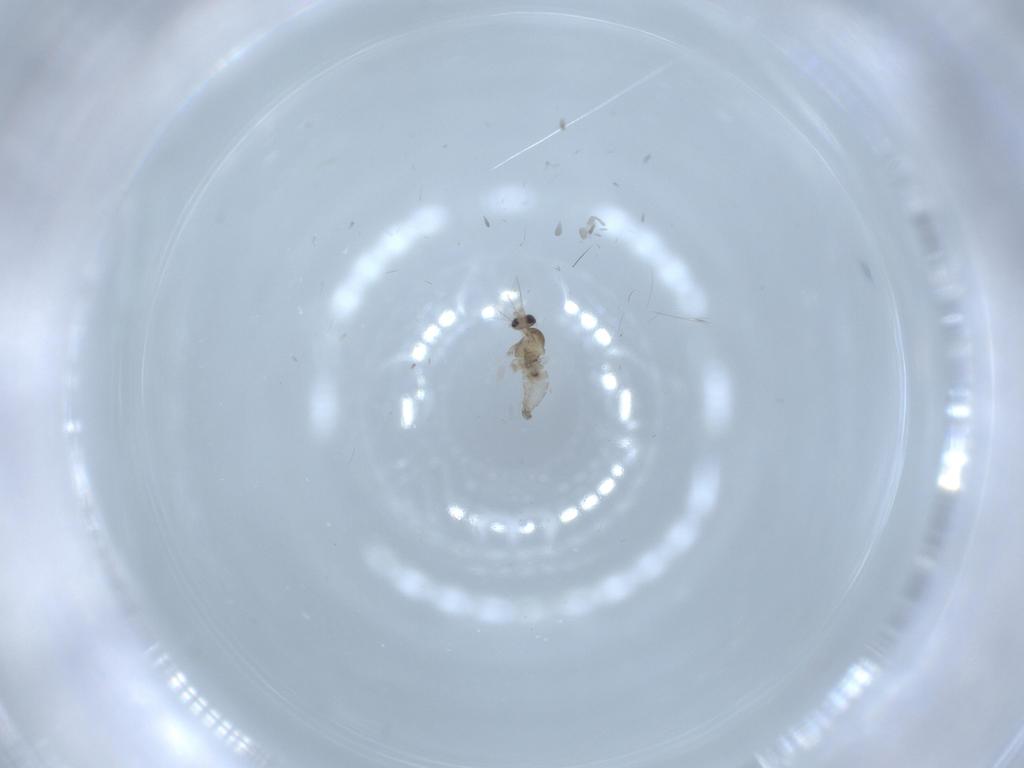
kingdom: Animalia
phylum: Arthropoda
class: Insecta
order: Diptera
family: Cecidomyiidae
